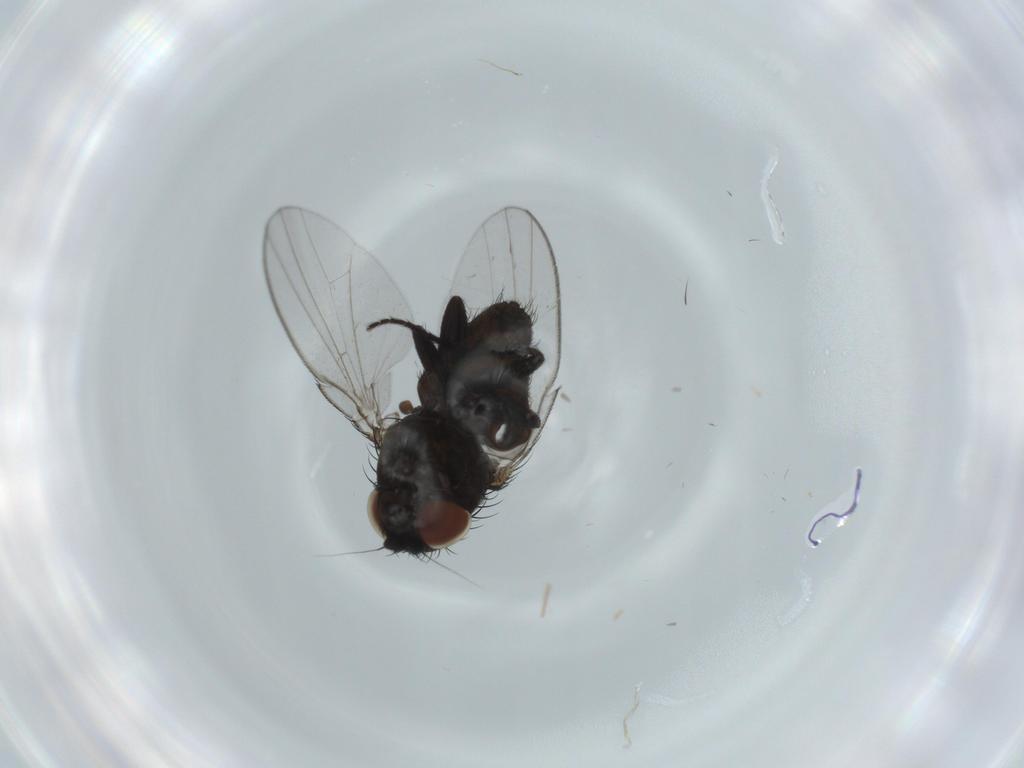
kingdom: Animalia
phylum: Arthropoda
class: Insecta
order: Diptera
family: Milichiidae
